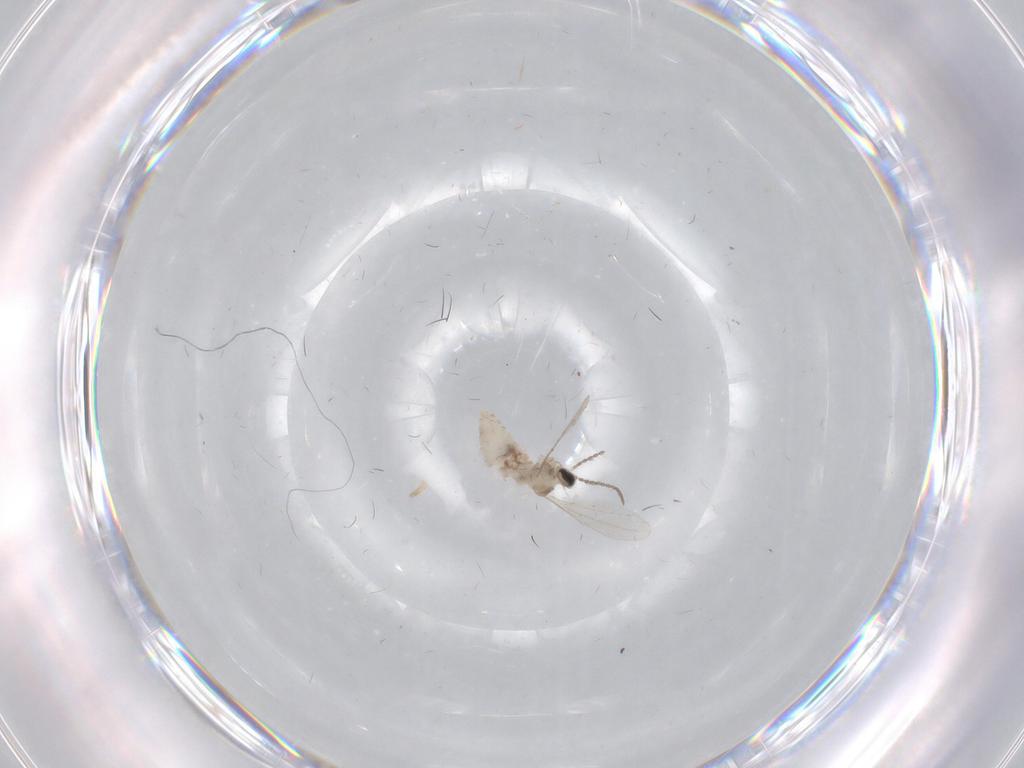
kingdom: Animalia
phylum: Arthropoda
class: Insecta
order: Diptera
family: Cecidomyiidae
